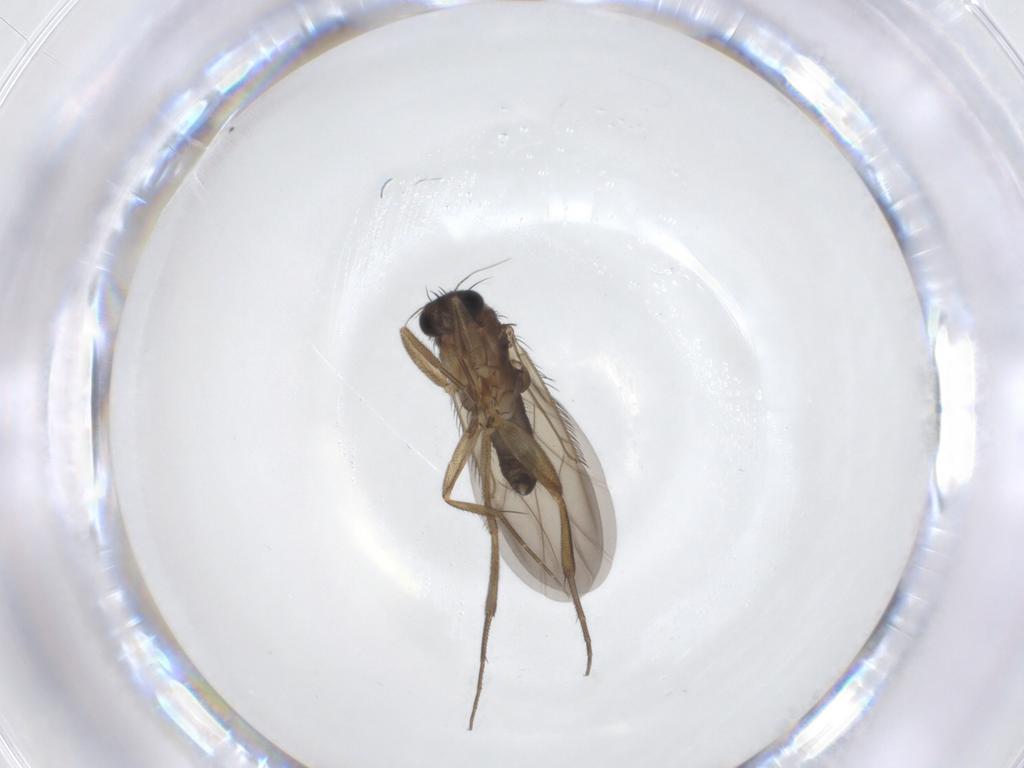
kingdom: Animalia
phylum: Arthropoda
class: Insecta
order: Diptera
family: Phoridae
